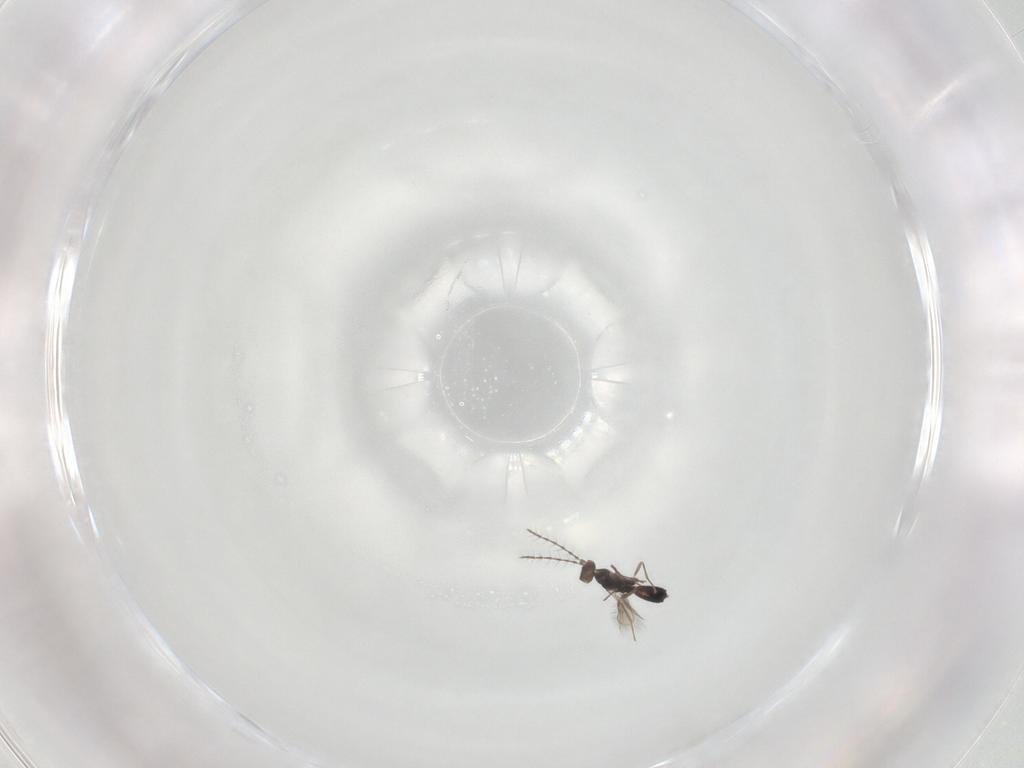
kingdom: Animalia
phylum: Arthropoda
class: Insecta
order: Hymenoptera
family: Pteromalidae
